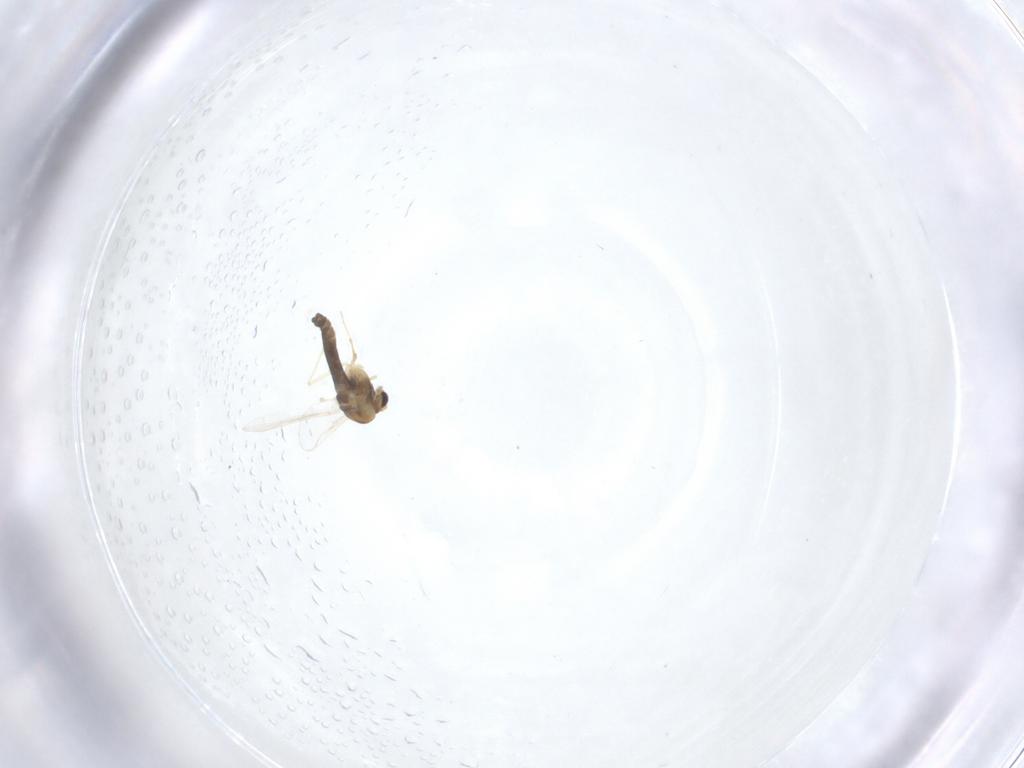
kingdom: Animalia
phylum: Arthropoda
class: Insecta
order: Diptera
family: Chironomidae
